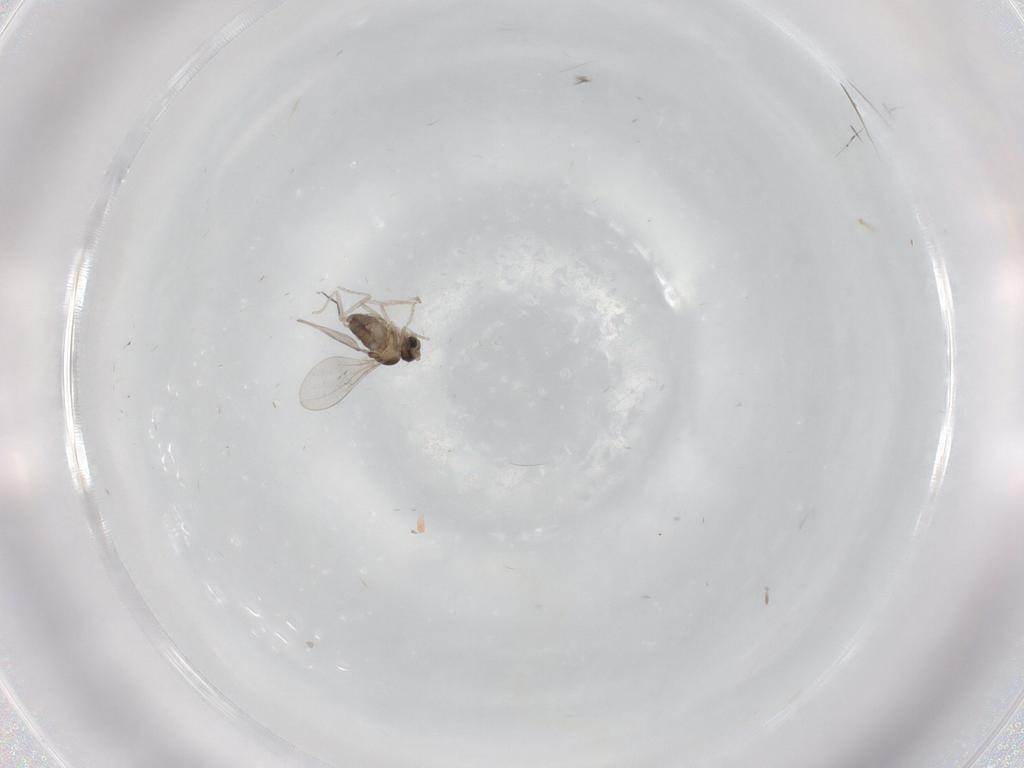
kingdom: Animalia
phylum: Arthropoda
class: Insecta
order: Diptera
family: Cecidomyiidae
